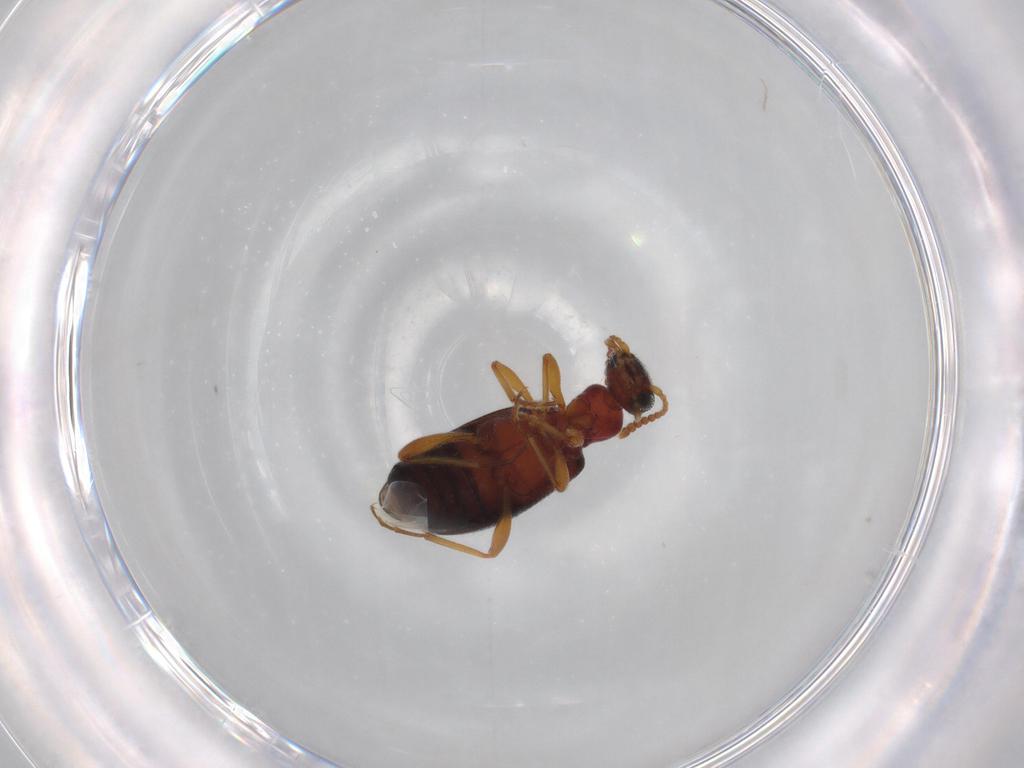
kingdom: Animalia
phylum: Arthropoda
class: Insecta
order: Coleoptera
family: Anthicidae
